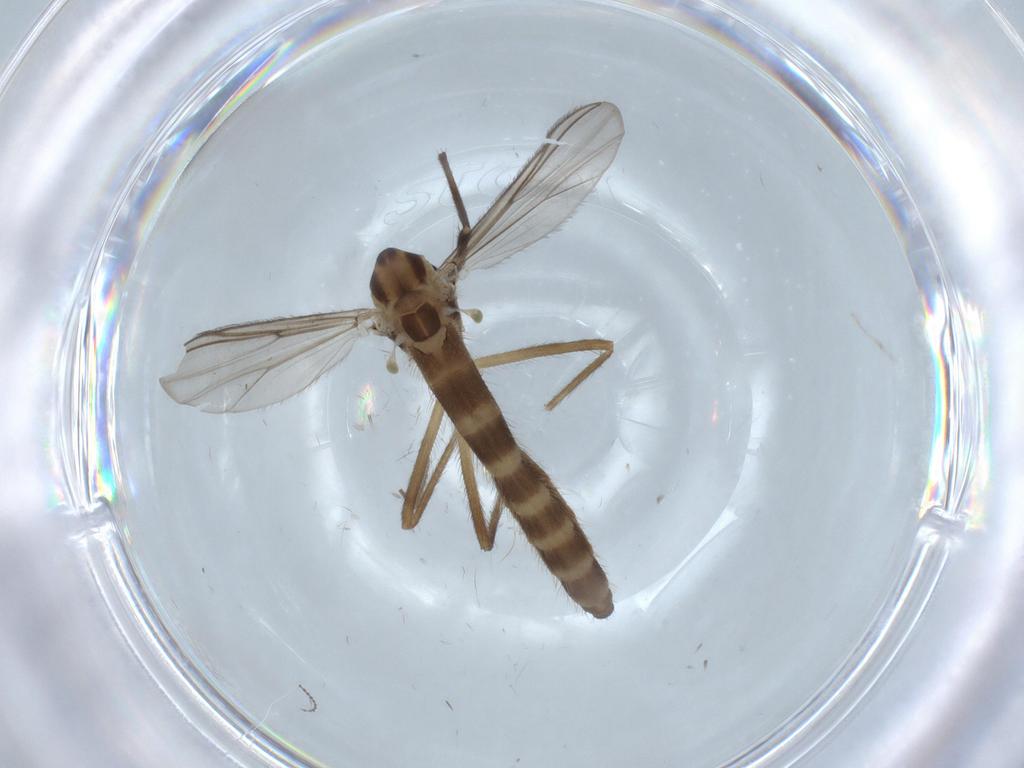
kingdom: Animalia
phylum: Arthropoda
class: Insecta
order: Diptera
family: Chironomidae
